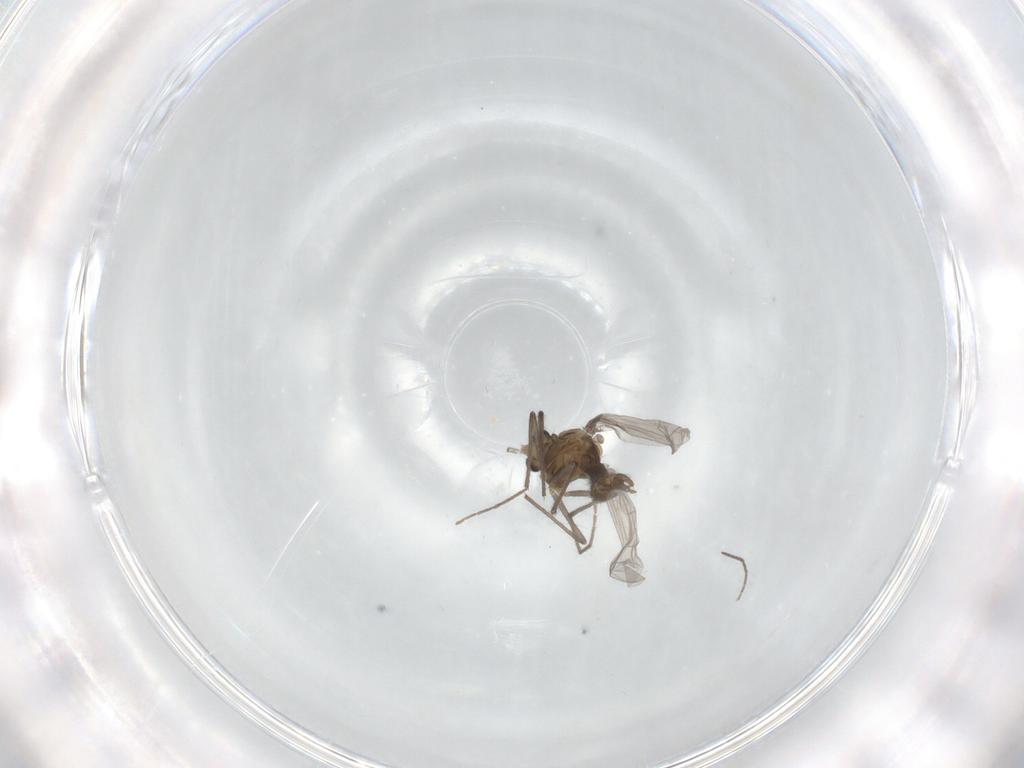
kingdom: Animalia
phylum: Arthropoda
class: Insecta
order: Diptera
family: Chironomidae
